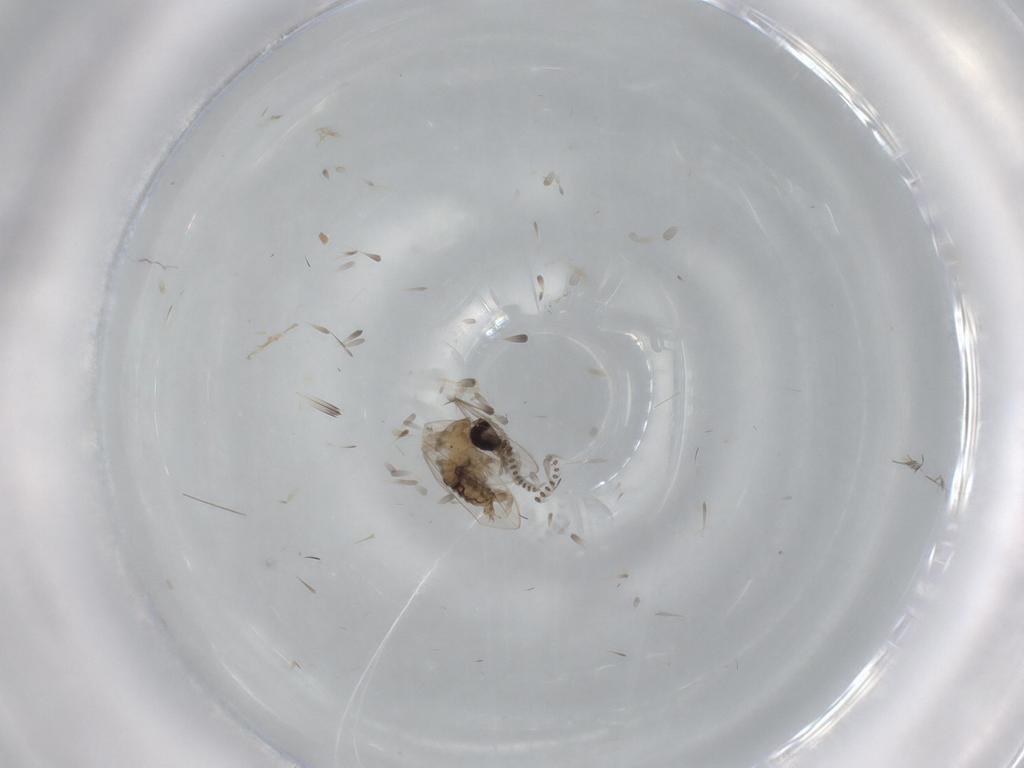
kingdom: Animalia
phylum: Arthropoda
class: Insecta
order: Diptera
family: Psychodidae
